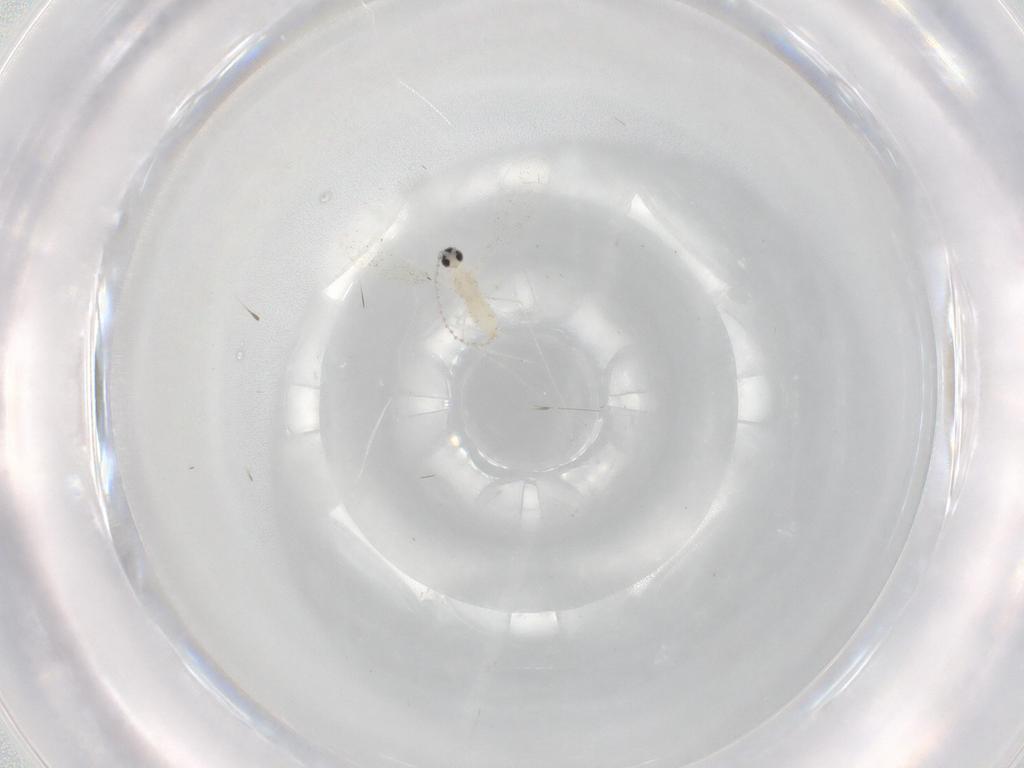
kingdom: Animalia
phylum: Arthropoda
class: Insecta
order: Diptera
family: Cecidomyiidae
